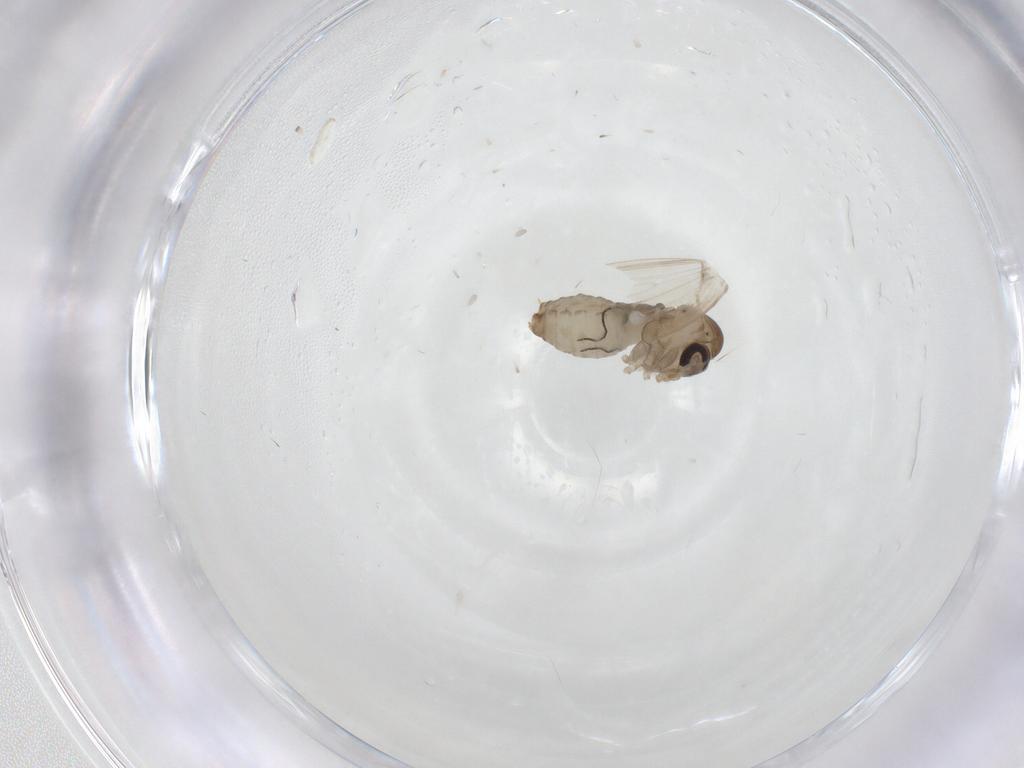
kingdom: Animalia
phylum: Arthropoda
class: Insecta
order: Diptera
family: Psychodidae
